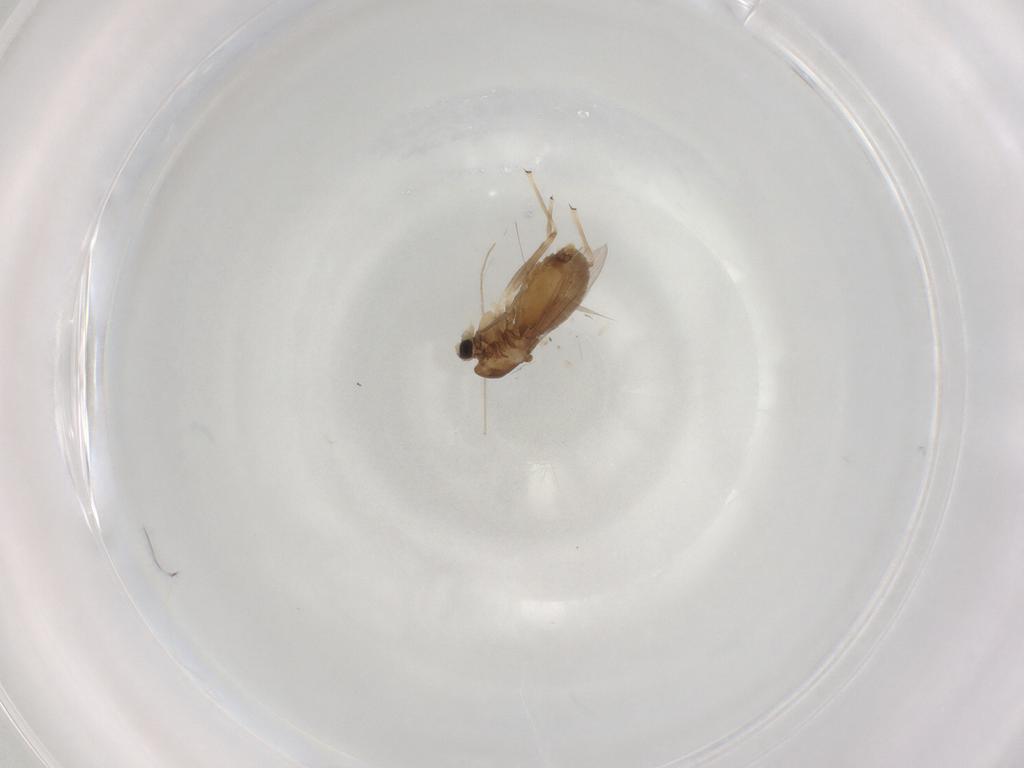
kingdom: Animalia
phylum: Arthropoda
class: Insecta
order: Diptera
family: Chironomidae
